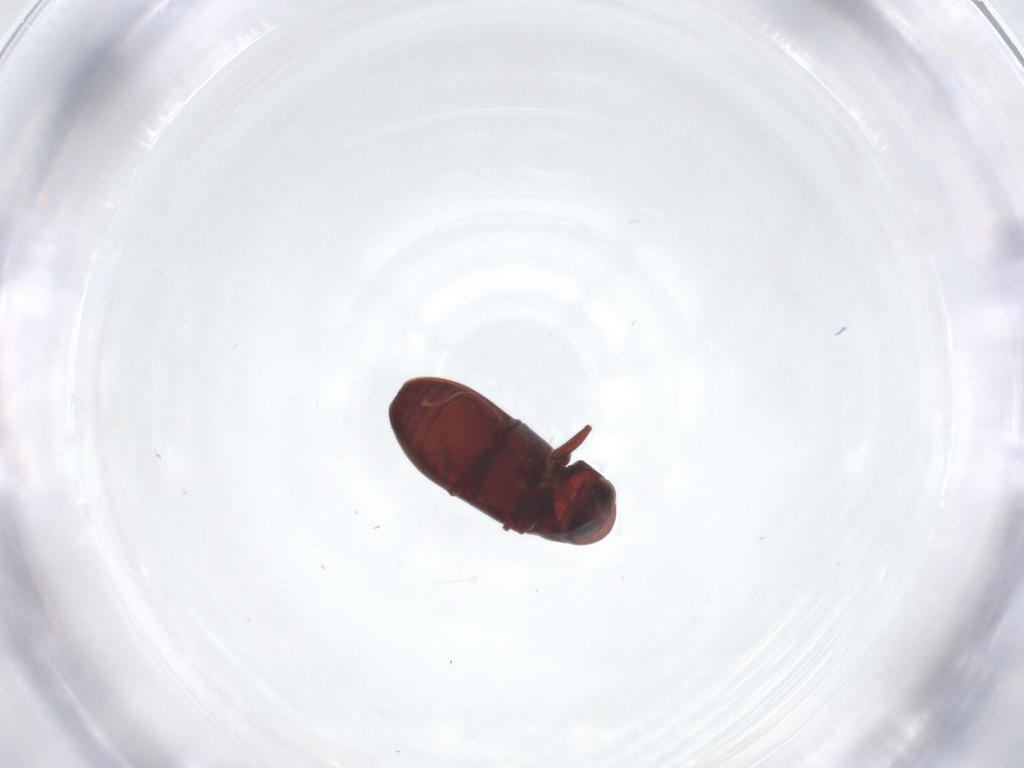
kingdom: Animalia
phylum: Arthropoda
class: Insecta
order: Coleoptera
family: Chrysomelidae
